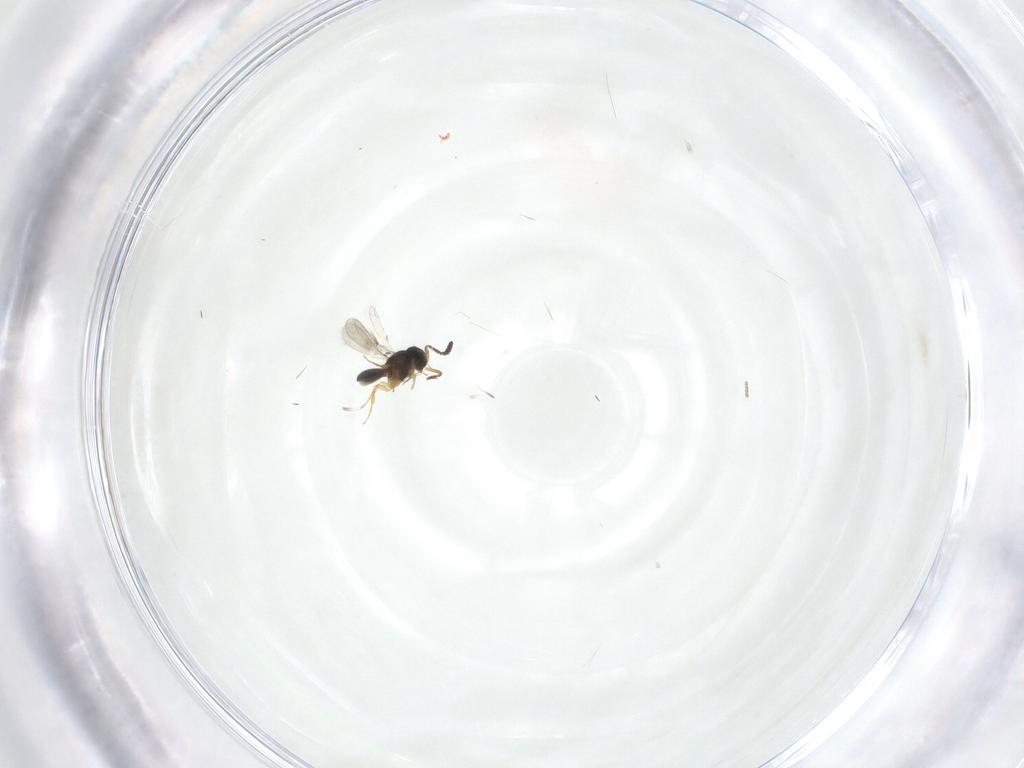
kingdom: Animalia
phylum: Arthropoda
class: Insecta
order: Hymenoptera
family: Scelionidae
